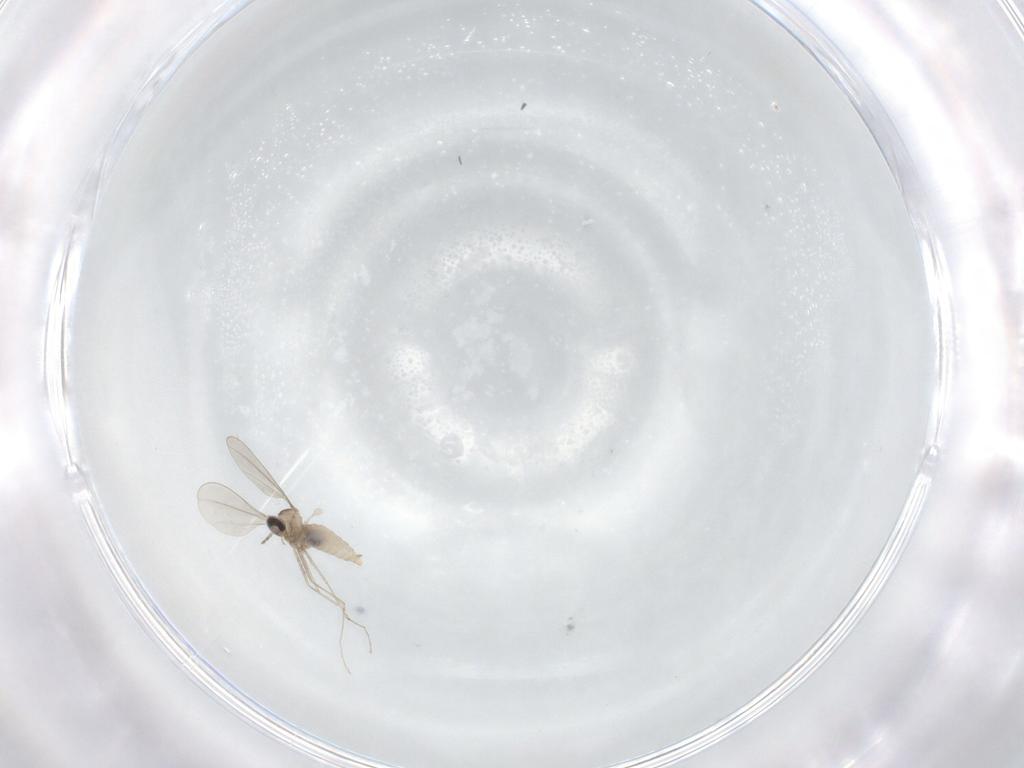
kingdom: Animalia
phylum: Arthropoda
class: Insecta
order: Diptera
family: Cecidomyiidae
